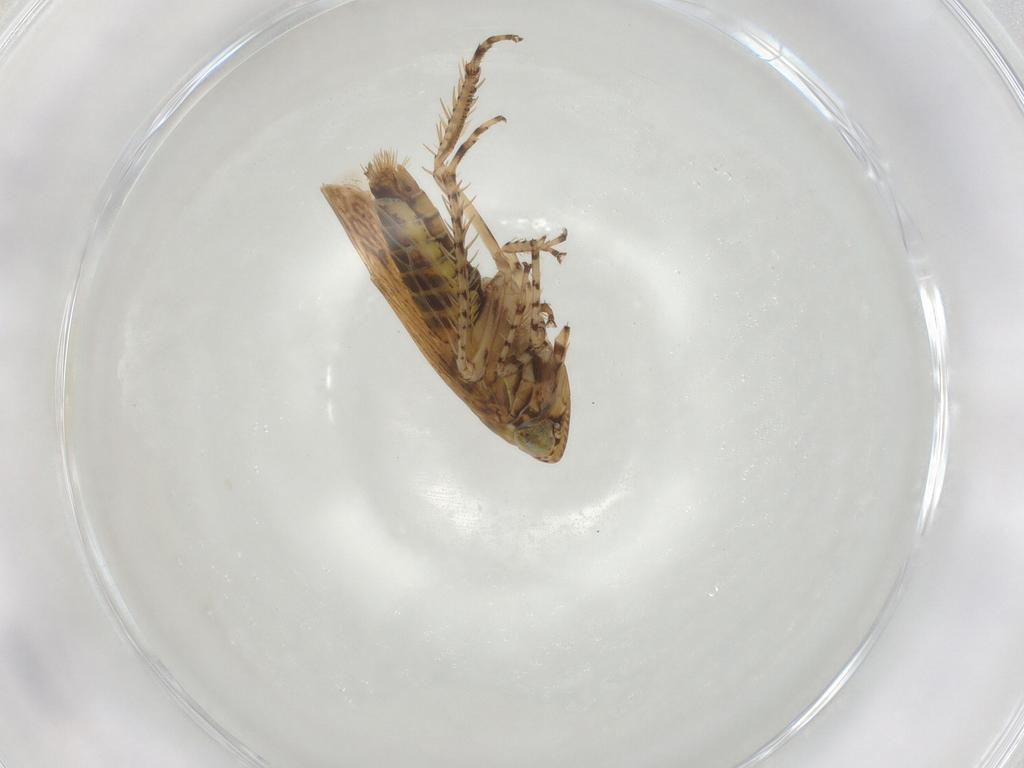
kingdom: Animalia
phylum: Arthropoda
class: Insecta
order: Hemiptera
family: Cicadellidae
